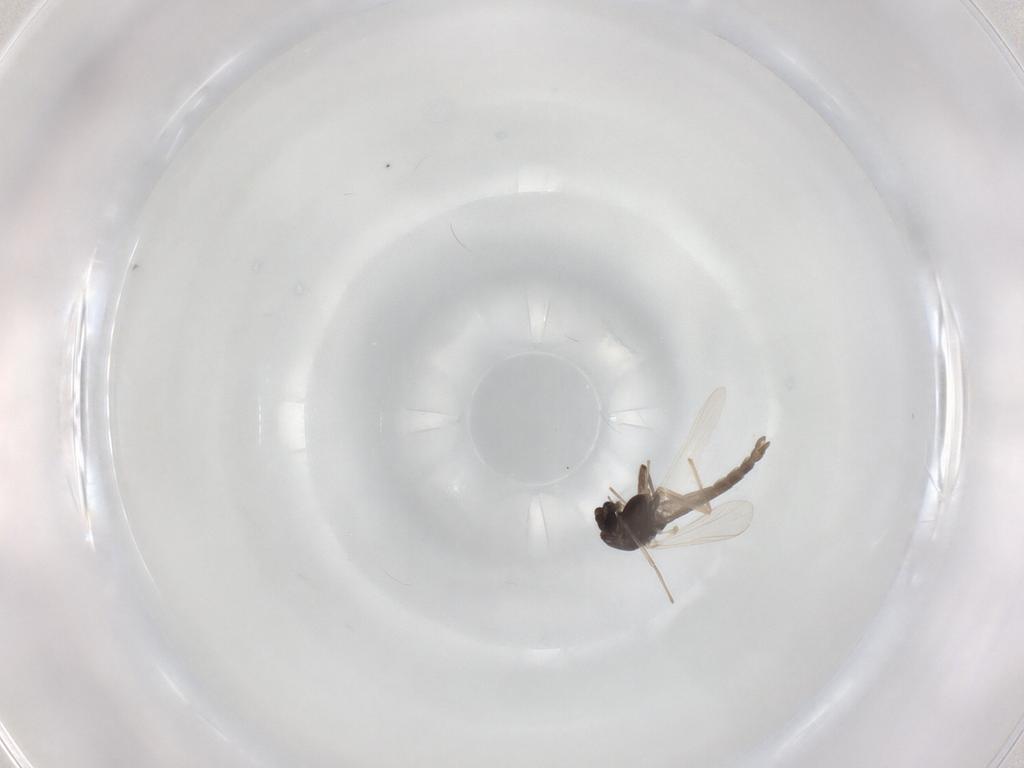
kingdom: Animalia
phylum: Arthropoda
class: Insecta
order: Diptera
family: Chironomidae
